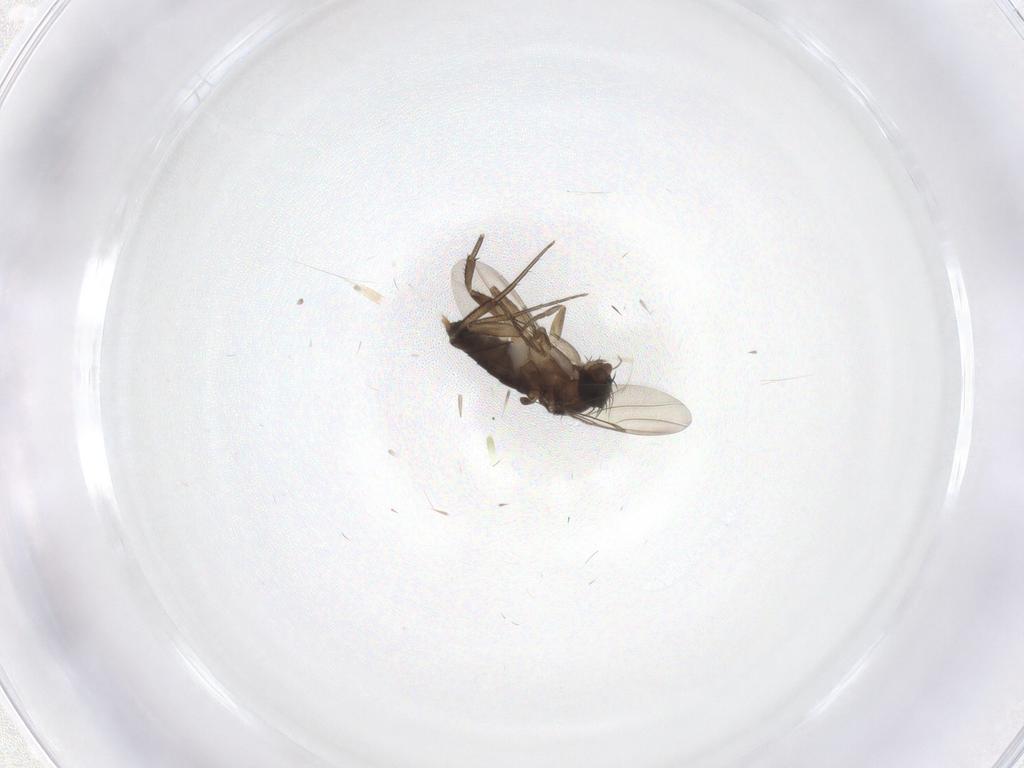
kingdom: Animalia
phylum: Arthropoda
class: Insecta
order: Diptera
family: Phoridae
